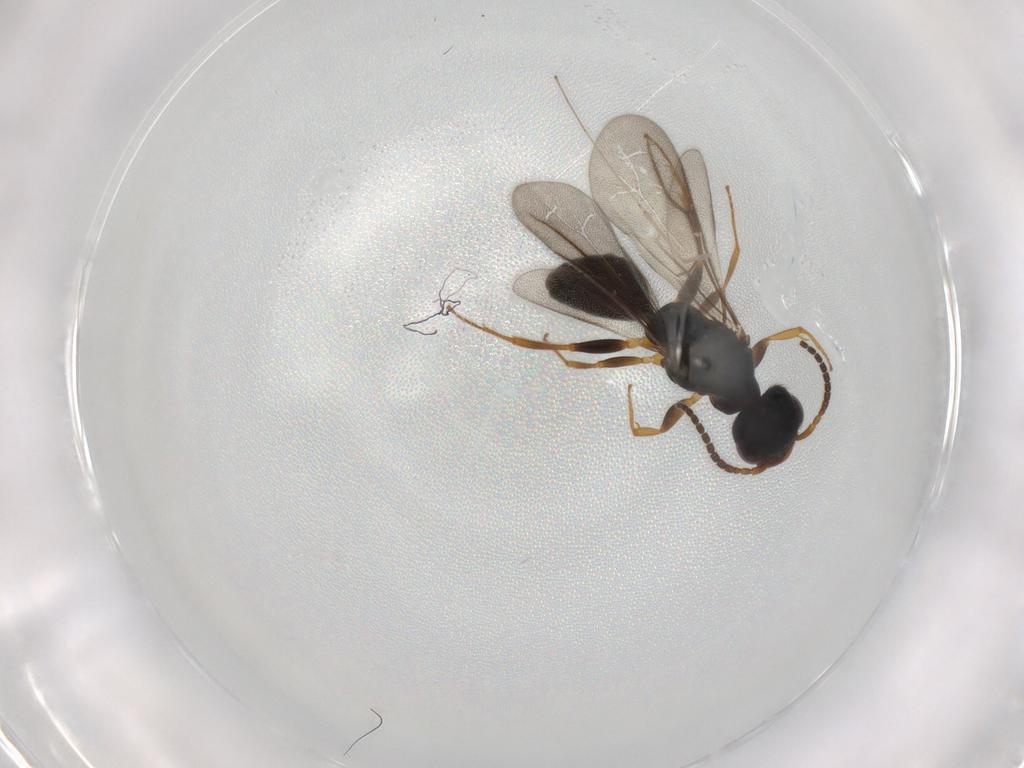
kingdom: Animalia
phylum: Arthropoda
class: Insecta
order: Hymenoptera
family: Bethylidae
